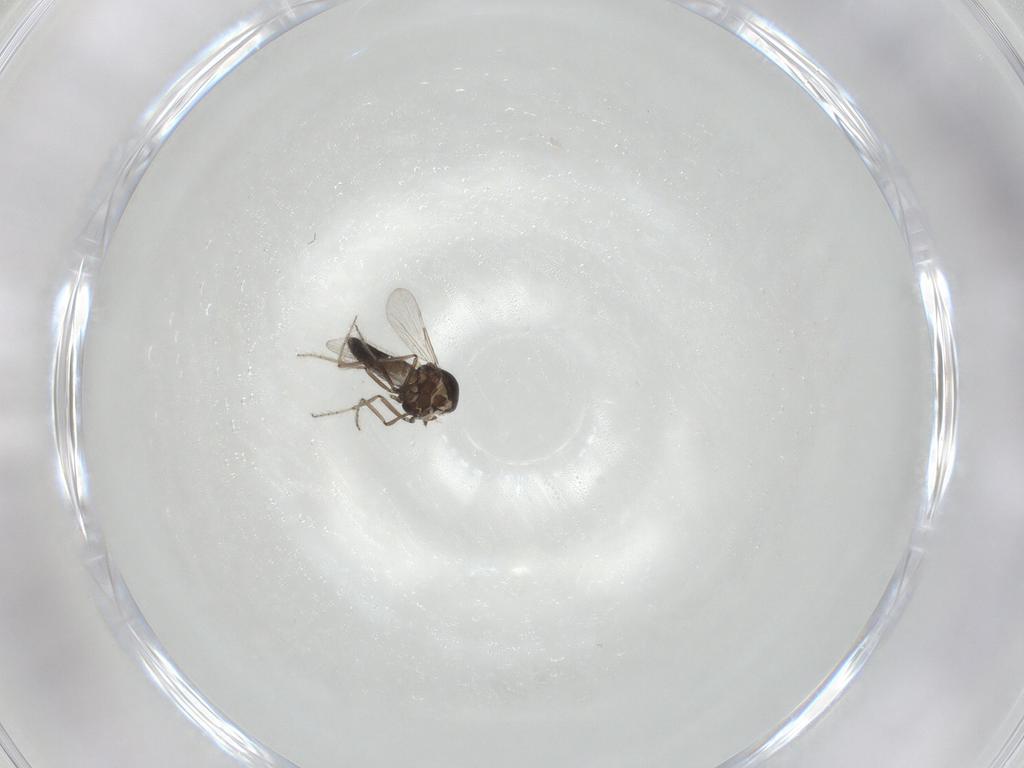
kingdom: Animalia
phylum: Arthropoda
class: Insecta
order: Diptera
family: Ceratopogonidae
